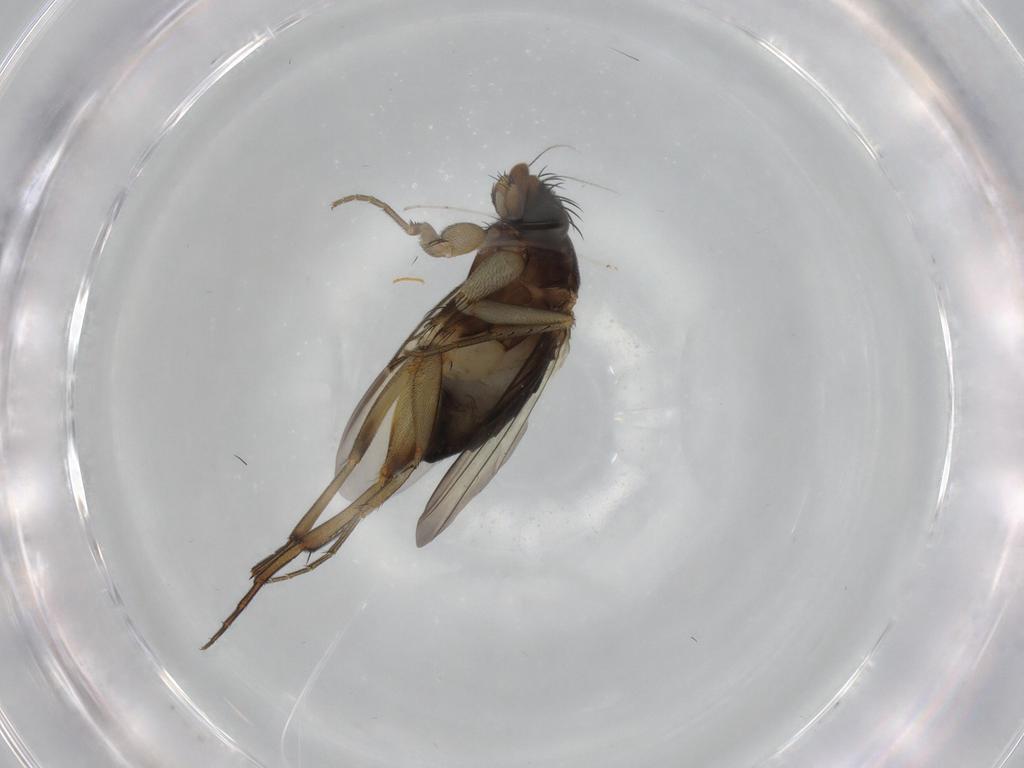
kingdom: Animalia
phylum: Arthropoda
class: Insecta
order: Diptera
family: Phoridae
